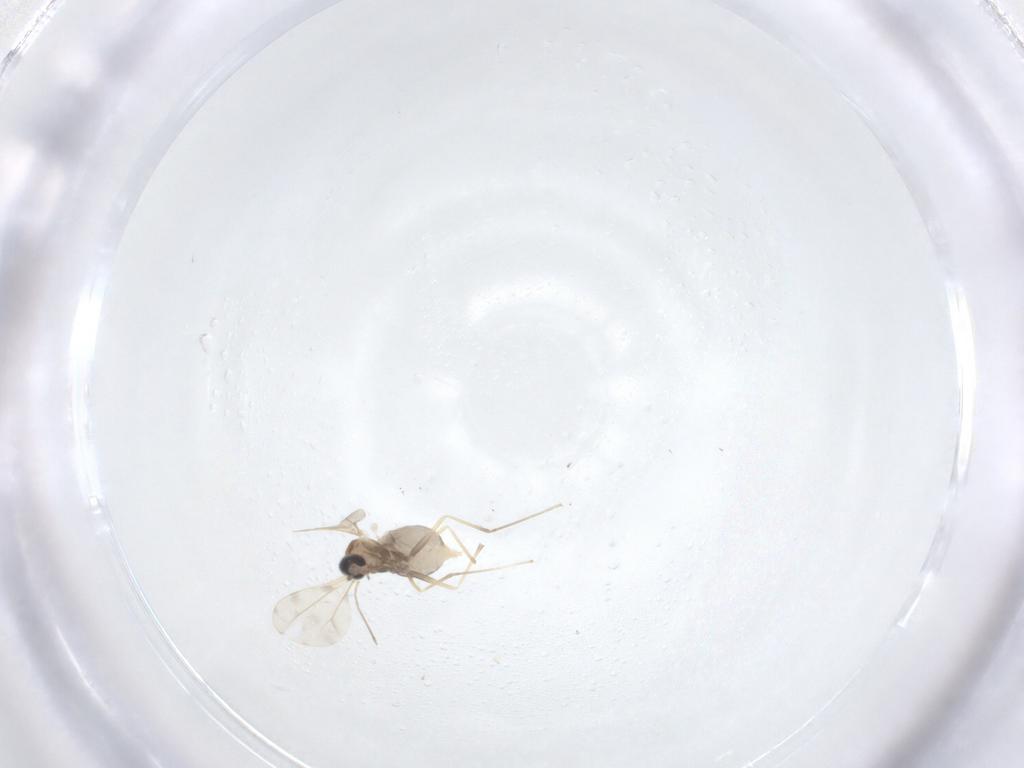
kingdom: Animalia
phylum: Arthropoda
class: Insecta
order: Diptera
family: Cecidomyiidae
